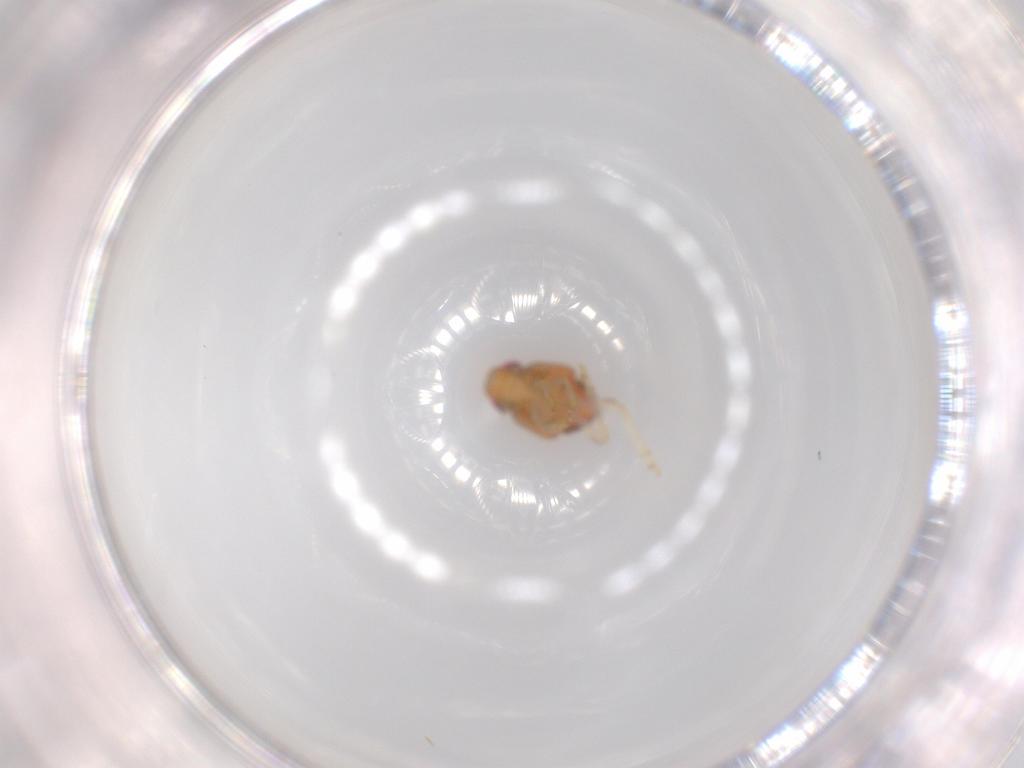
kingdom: Animalia
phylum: Arthropoda
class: Insecta
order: Hemiptera
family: Issidae
